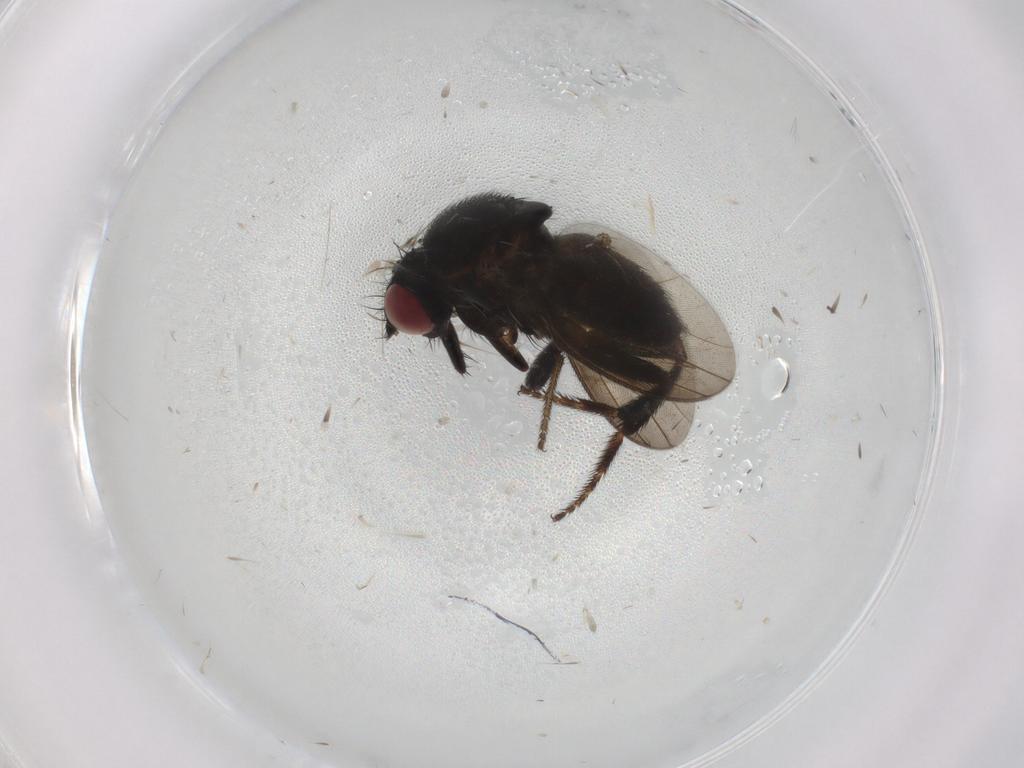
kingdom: Animalia
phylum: Arthropoda
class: Insecta
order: Diptera
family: Milichiidae
